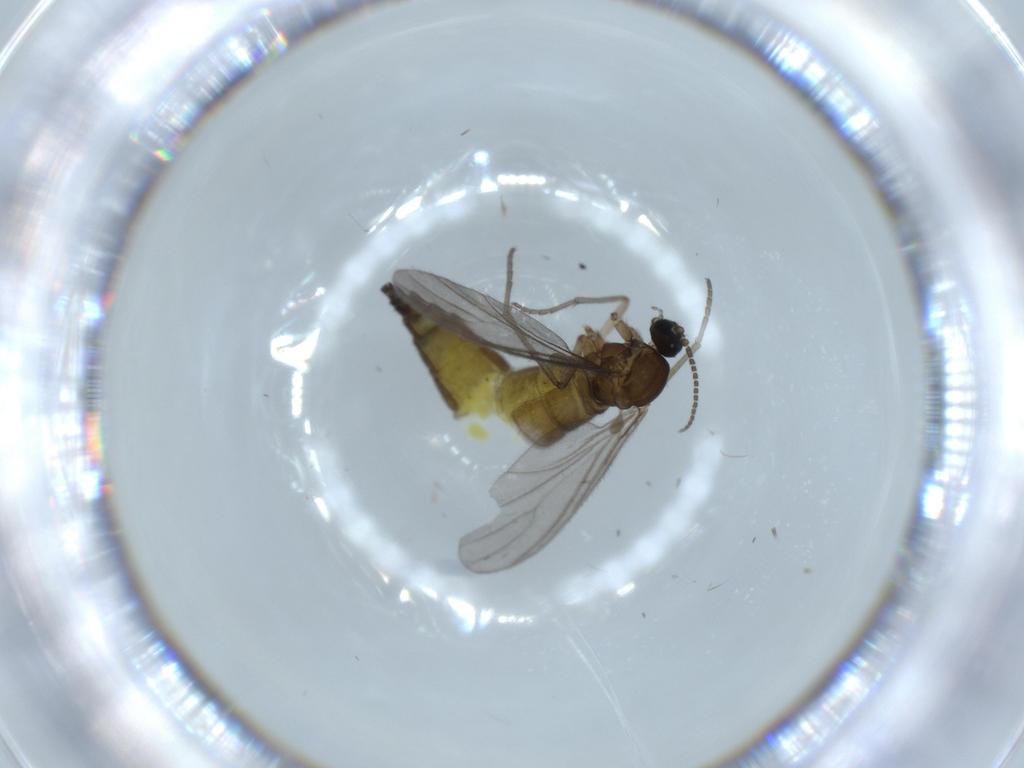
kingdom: Animalia
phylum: Arthropoda
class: Insecta
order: Diptera
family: Sciaridae
